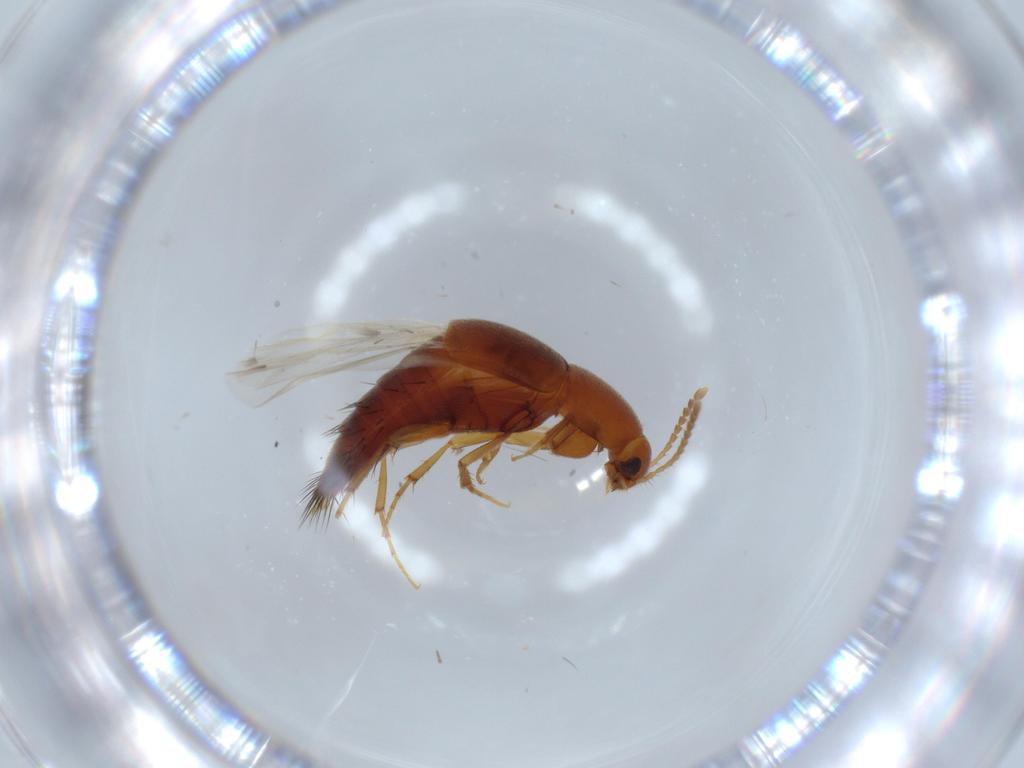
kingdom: Animalia
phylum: Arthropoda
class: Insecta
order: Coleoptera
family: Staphylinidae
